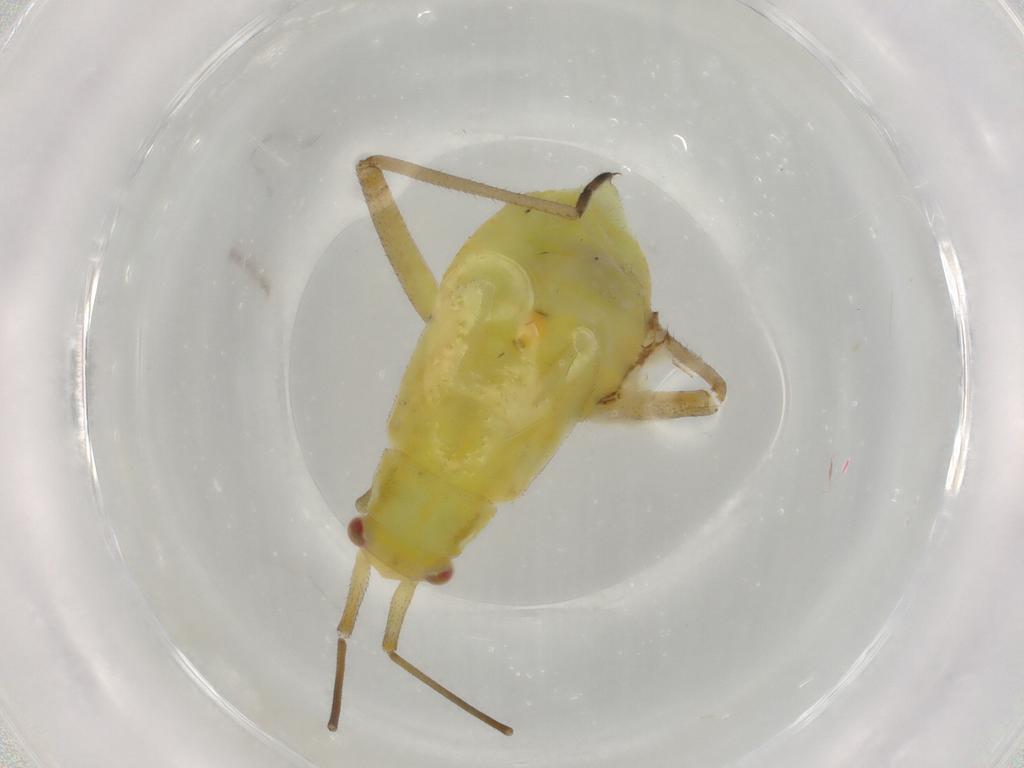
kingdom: Animalia
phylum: Arthropoda
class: Insecta
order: Hemiptera
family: Miridae
